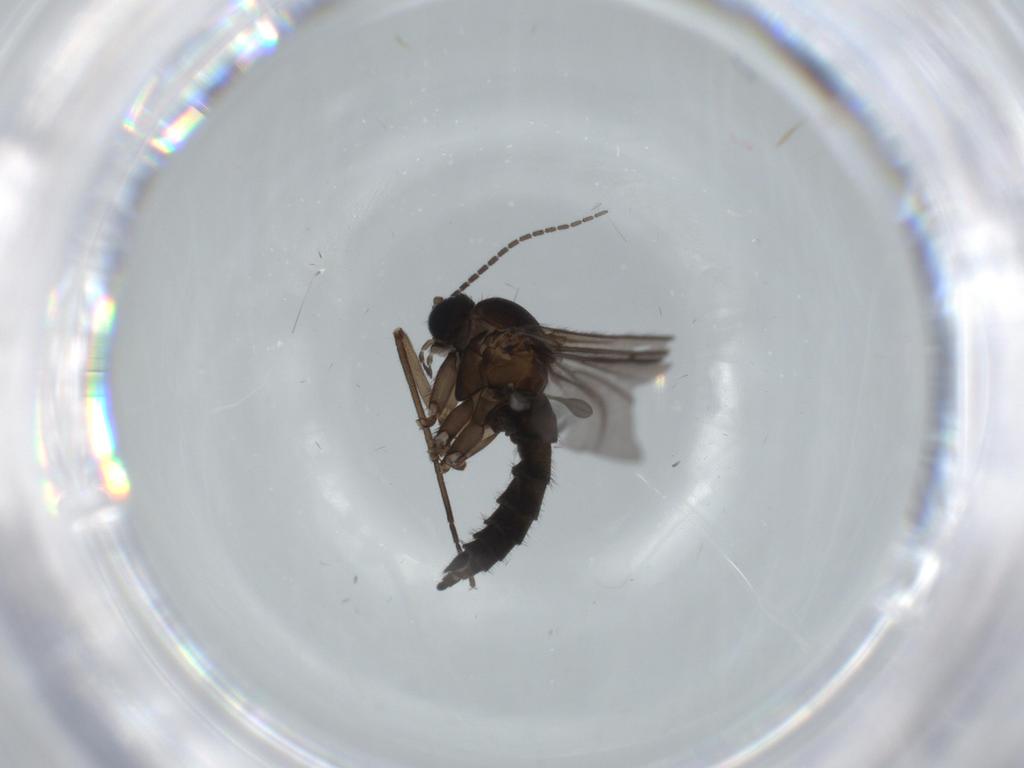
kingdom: Animalia
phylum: Arthropoda
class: Insecta
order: Diptera
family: Sciaridae
